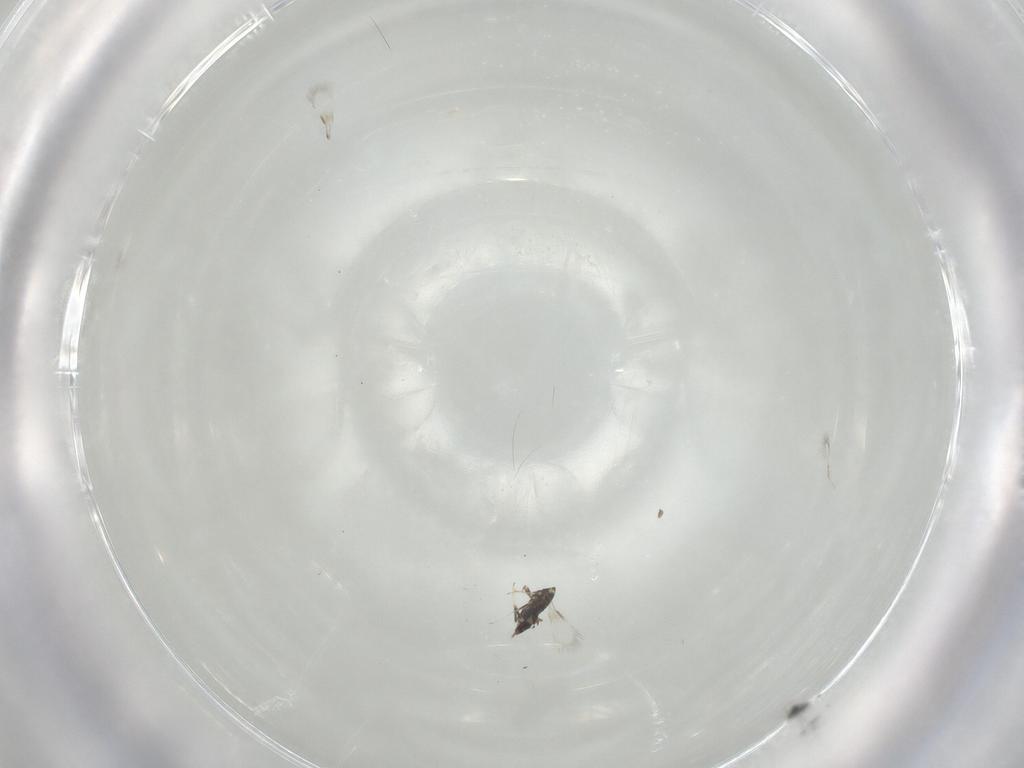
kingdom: Animalia
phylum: Arthropoda
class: Insecta
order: Hymenoptera
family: Signiphoridae
